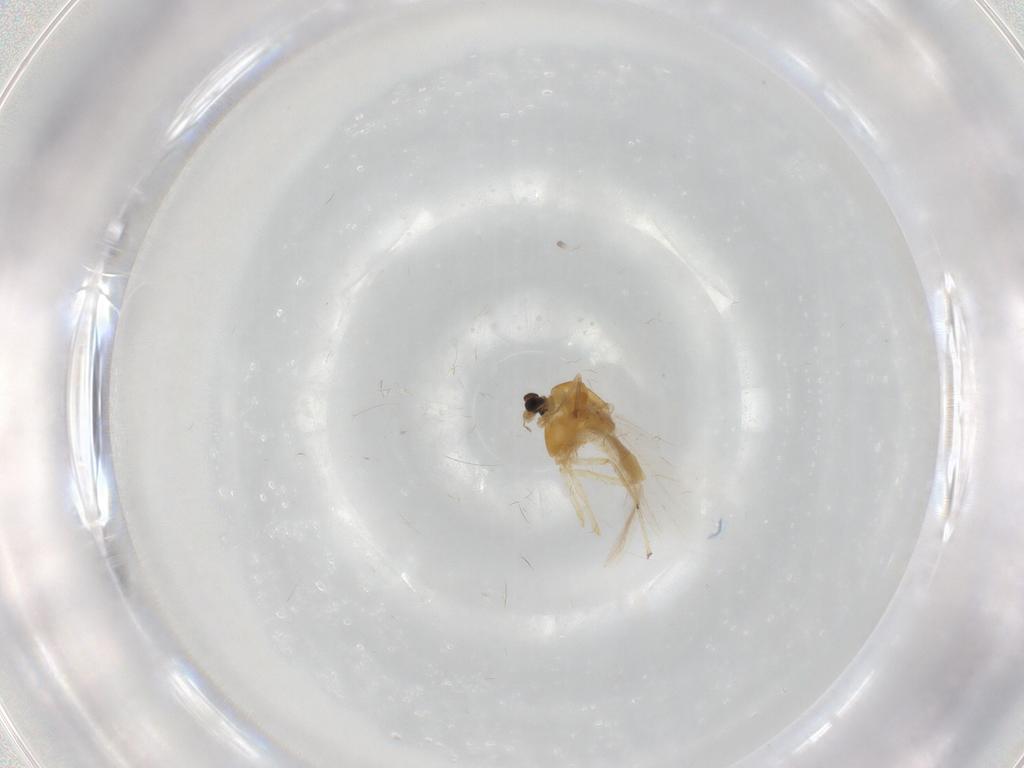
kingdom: Animalia
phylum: Arthropoda
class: Insecta
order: Diptera
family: Chironomidae
